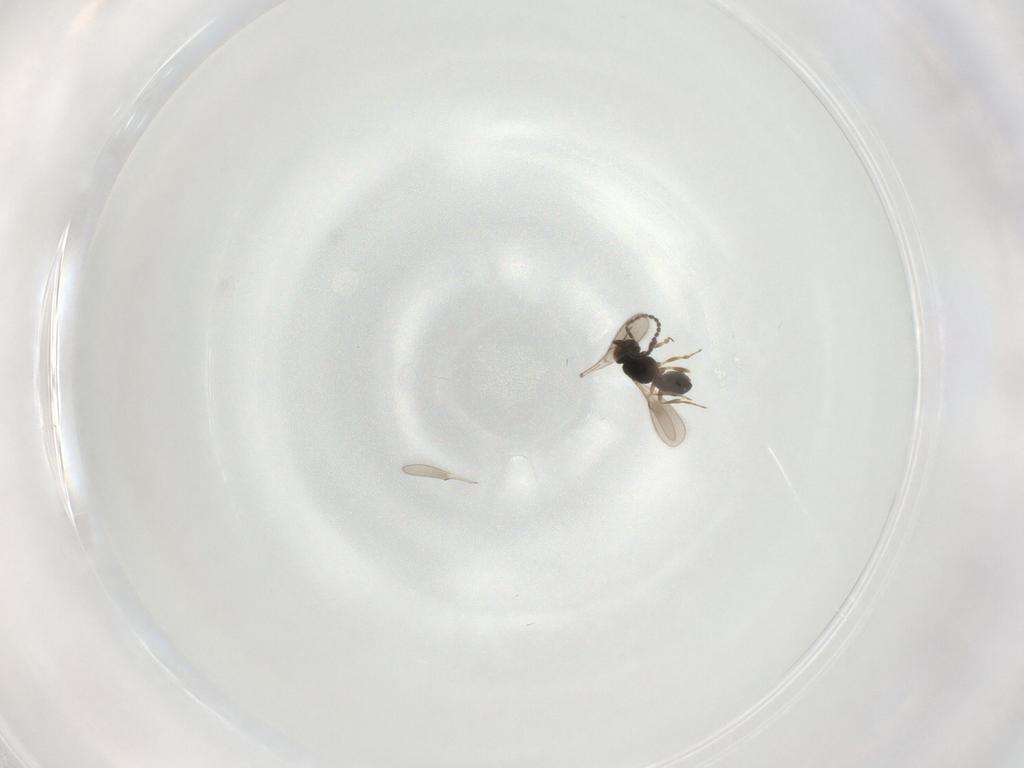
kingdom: Animalia
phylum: Arthropoda
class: Insecta
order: Hymenoptera
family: Scelionidae
